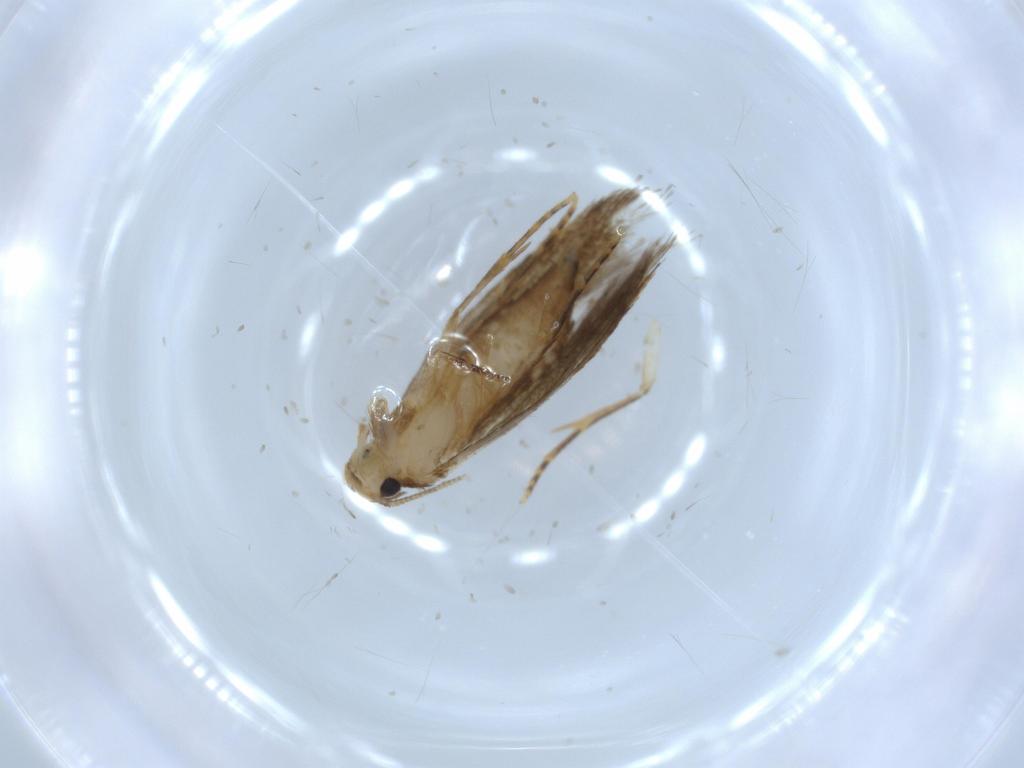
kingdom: Animalia
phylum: Arthropoda
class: Insecta
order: Lepidoptera
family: Tineidae
